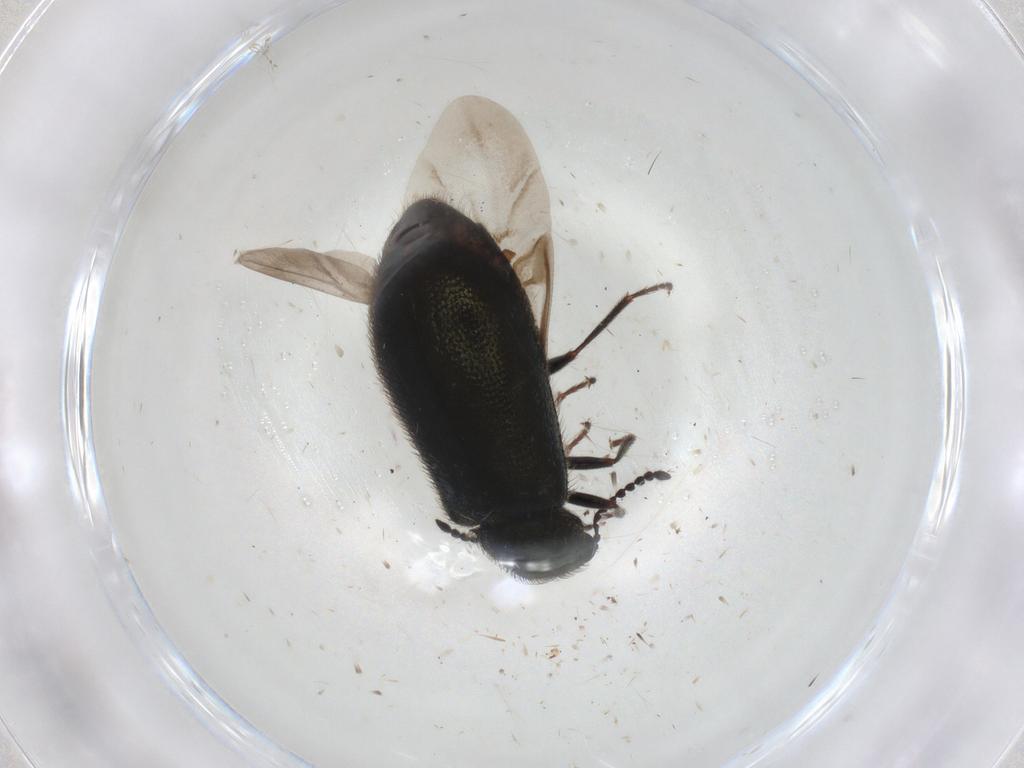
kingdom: Animalia
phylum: Arthropoda
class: Insecta
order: Coleoptera
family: Melyridae
